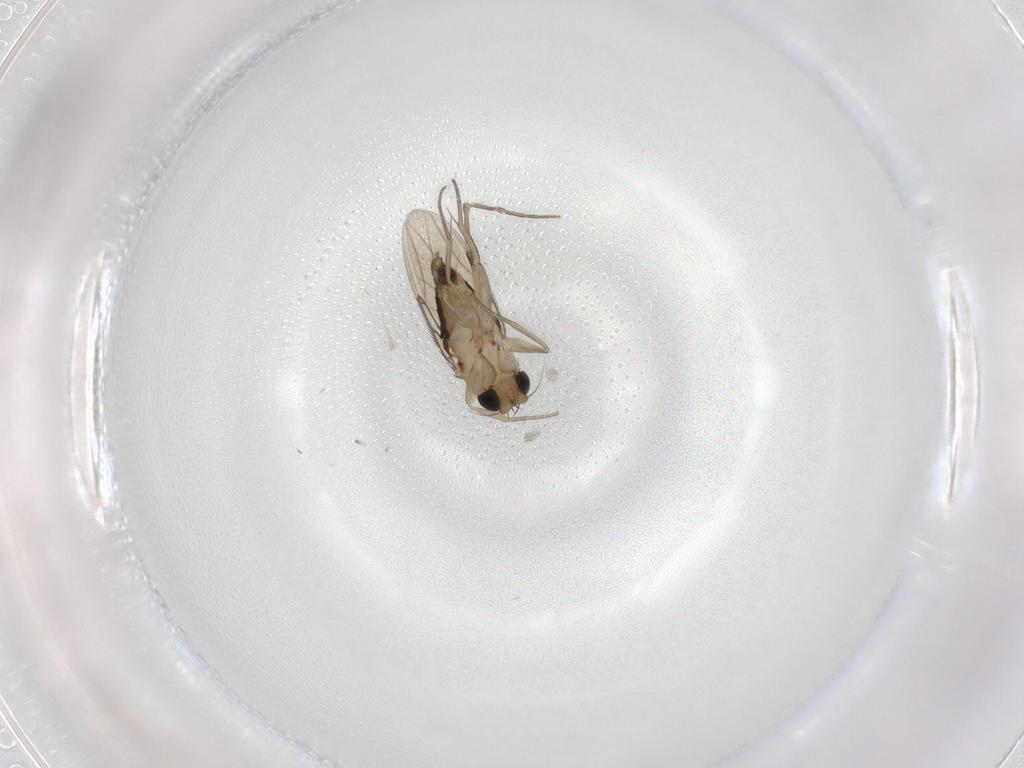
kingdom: Animalia
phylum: Arthropoda
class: Insecta
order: Diptera
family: Phoridae
